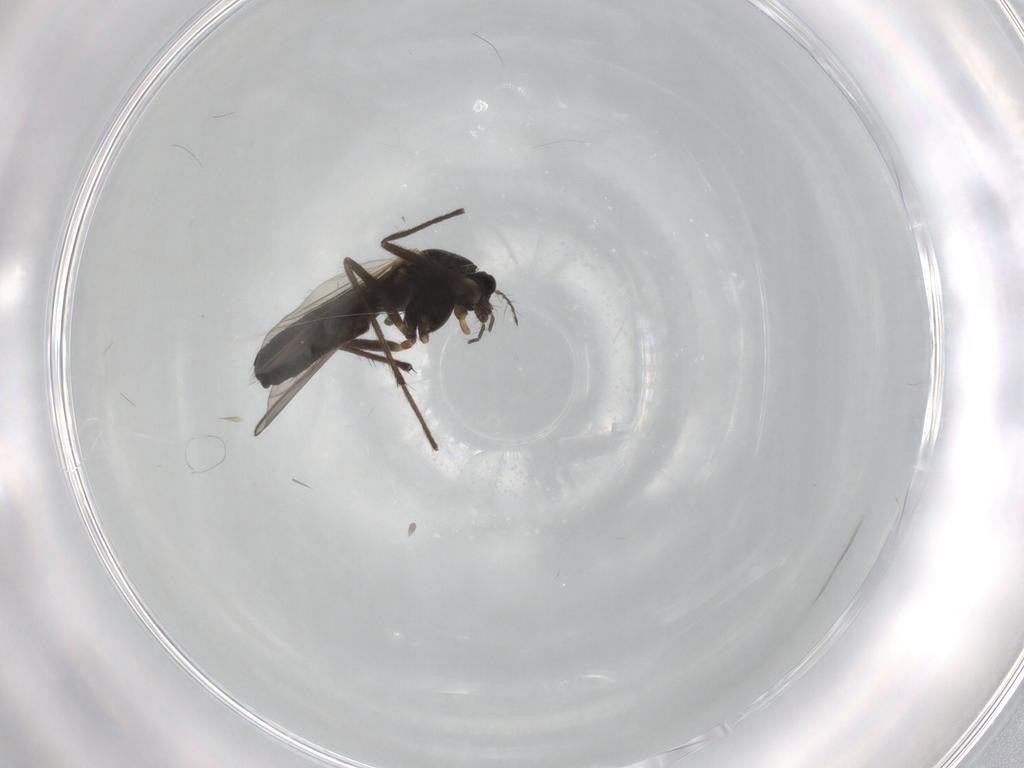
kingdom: Animalia
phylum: Arthropoda
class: Insecta
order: Diptera
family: Chironomidae
